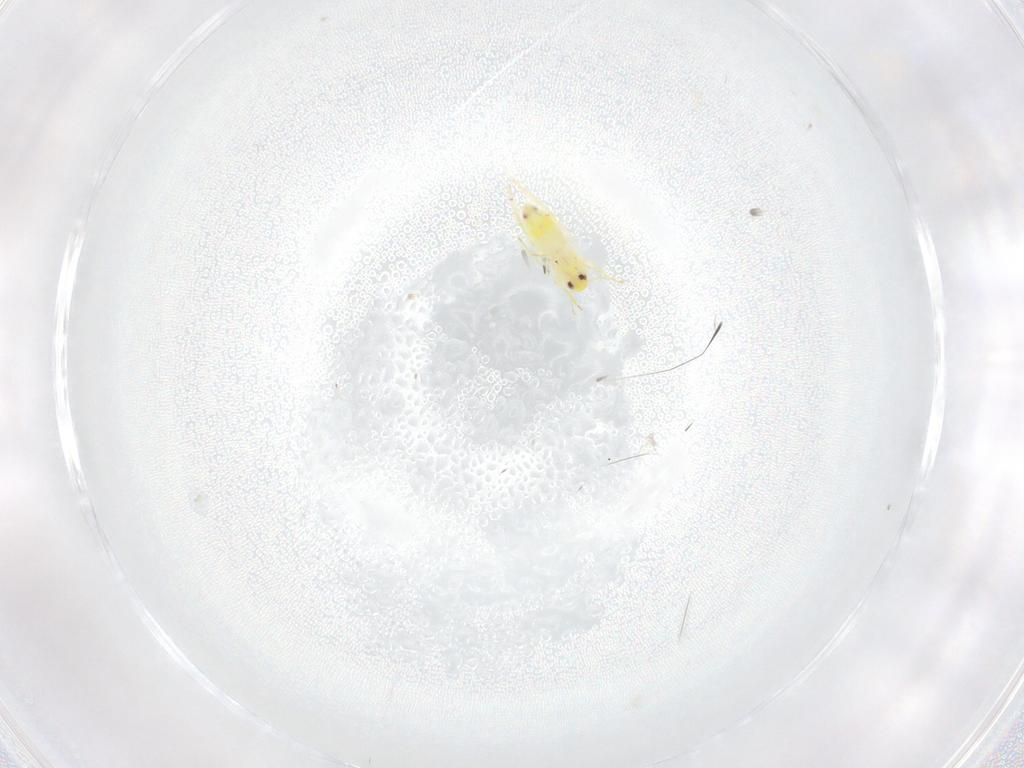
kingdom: Animalia
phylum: Arthropoda
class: Insecta
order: Hemiptera
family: Aleyrodidae
